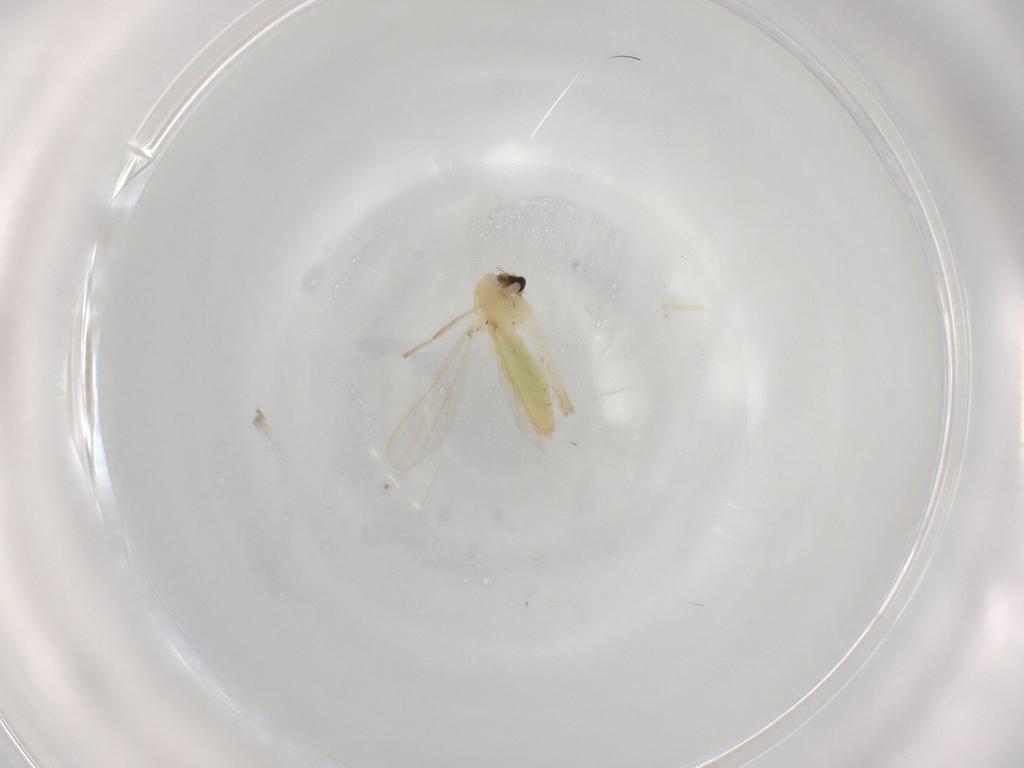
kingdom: Animalia
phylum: Arthropoda
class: Insecta
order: Diptera
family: Chironomidae
